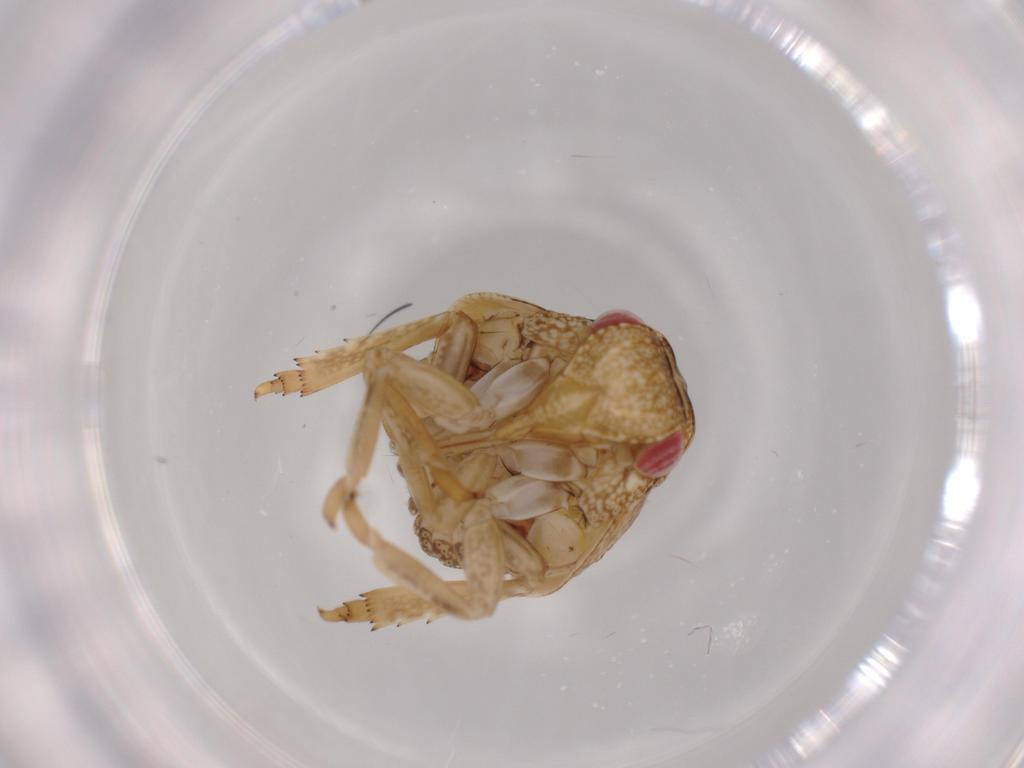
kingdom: Animalia
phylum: Arthropoda
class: Insecta
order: Hemiptera
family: Acanaloniidae
